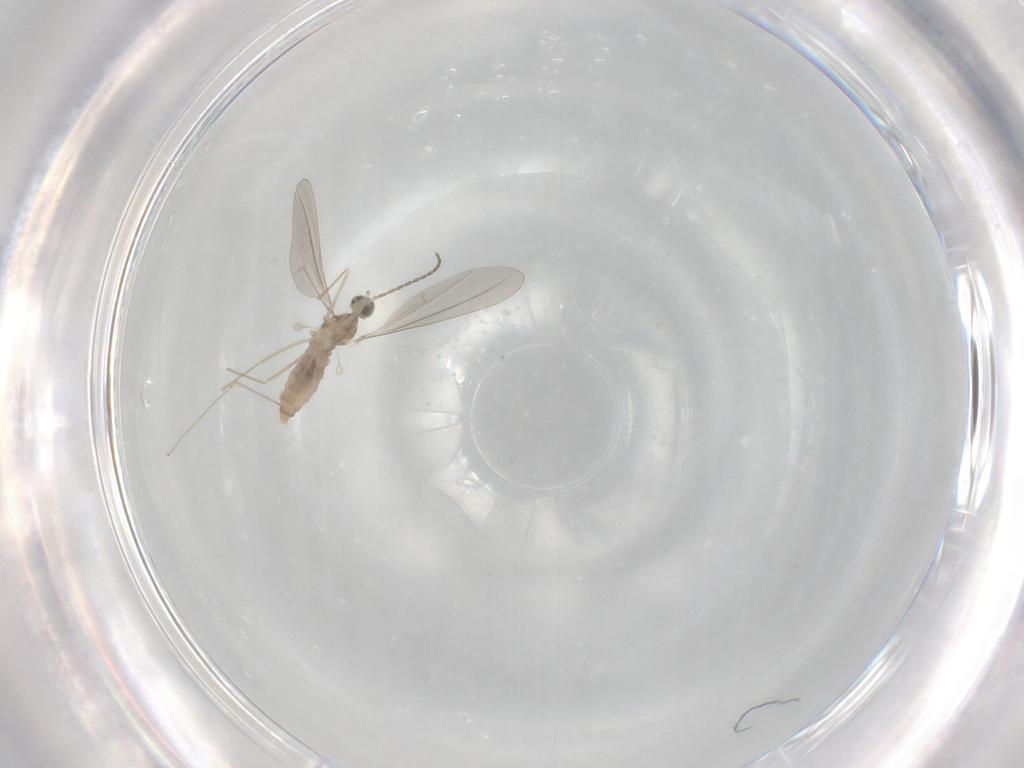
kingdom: Animalia
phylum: Arthropoda
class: Insecta
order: Diptera
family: Cecidomyiidae
